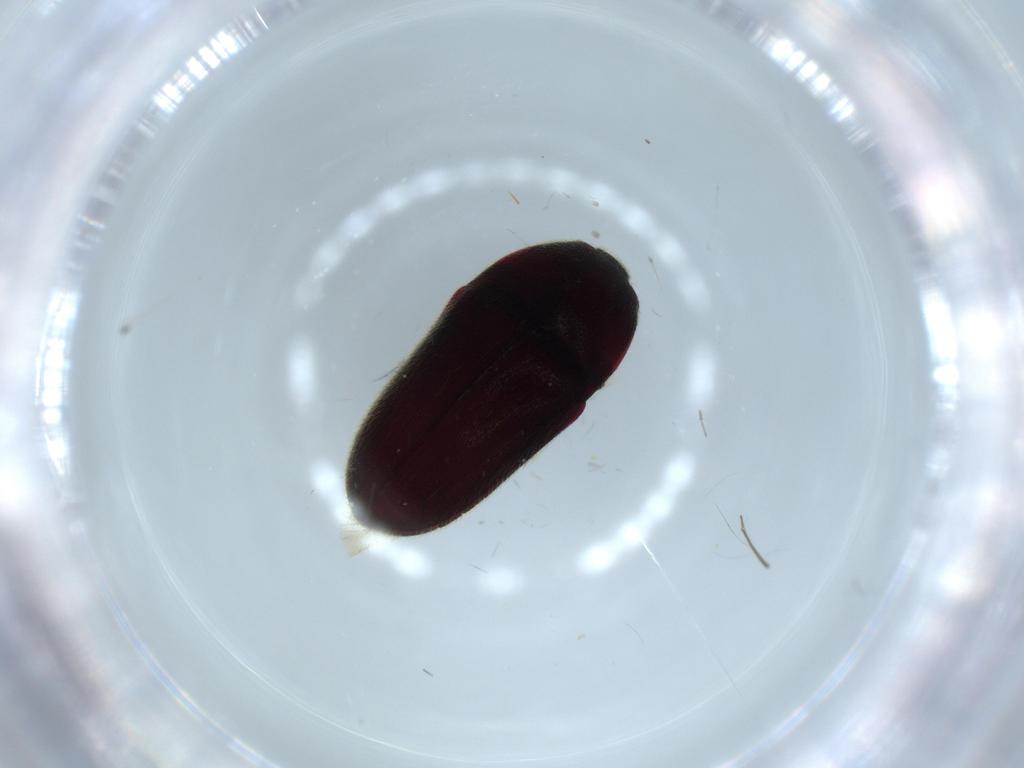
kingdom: Animalia
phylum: Arthropoda
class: Insecta
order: Coleoptera
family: Throscidae
